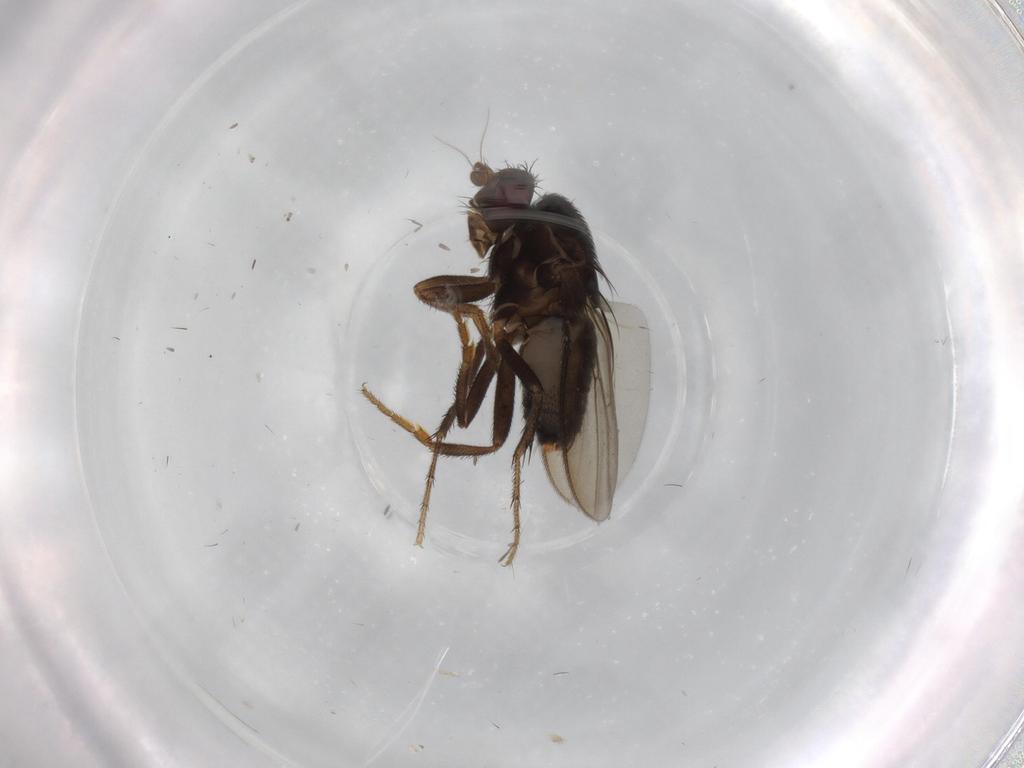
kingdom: Animalia
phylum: Arthropoda
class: Insecta
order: Diptera
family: Sphaeroceridae
